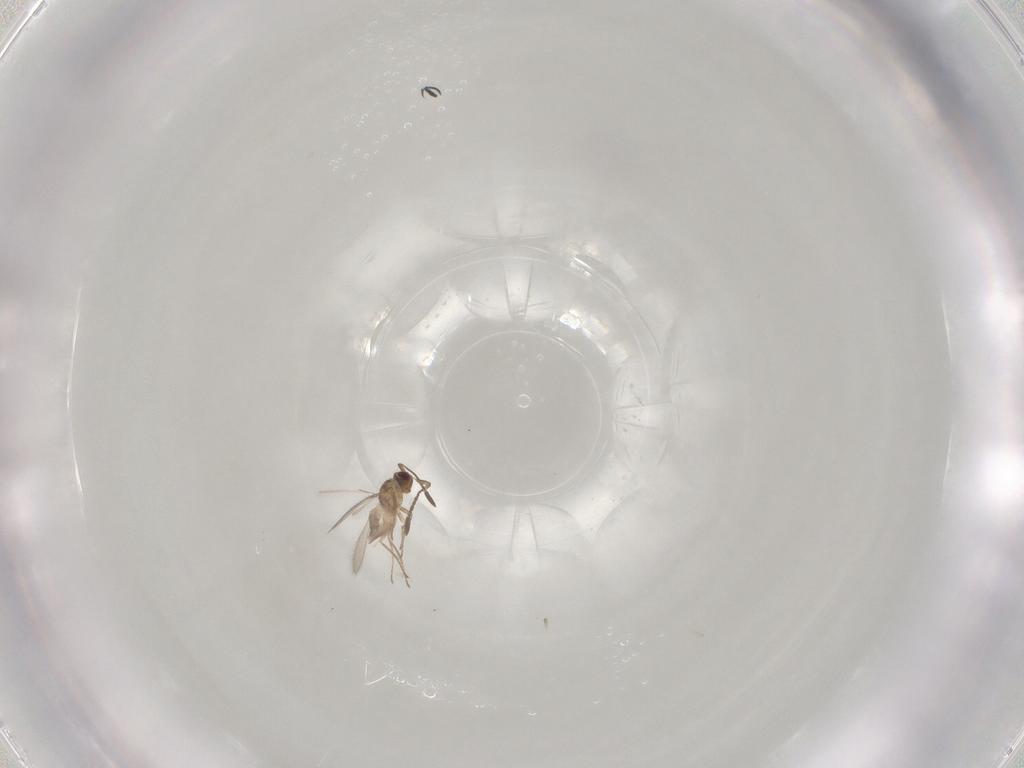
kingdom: Animalia
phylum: Arthropoda
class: Insecta
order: Hymenoptera
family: Mymaridae
